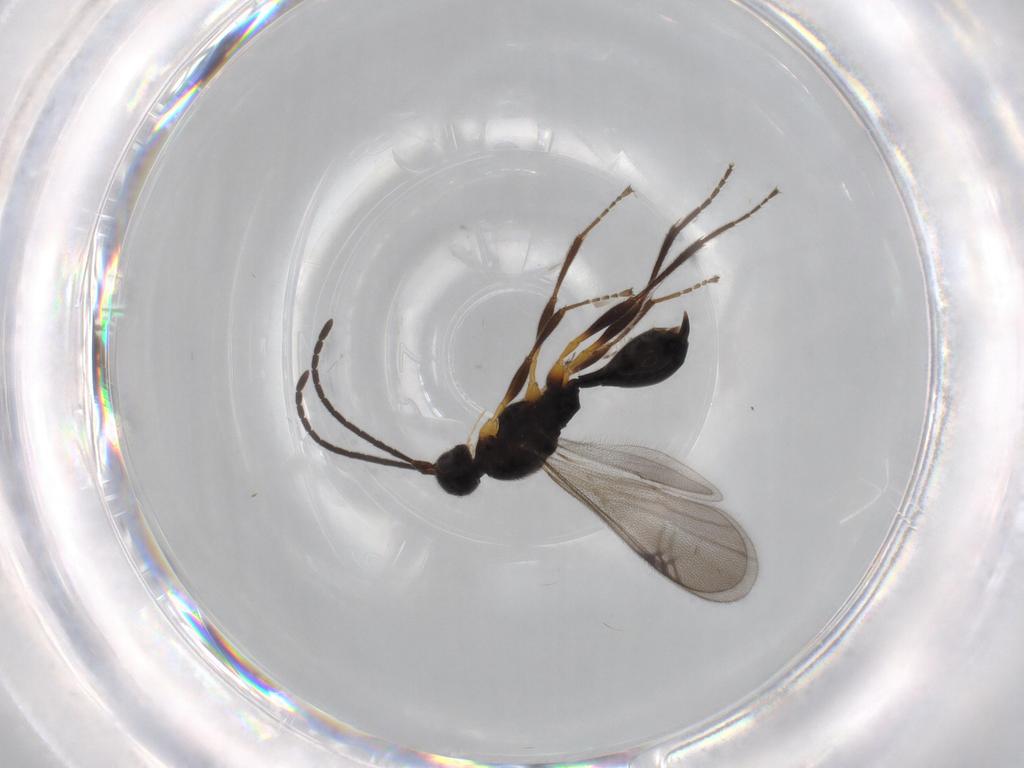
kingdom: Animalia
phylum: Arthropoda
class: Insecta
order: Hymenoptera
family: Proctotrupidae
